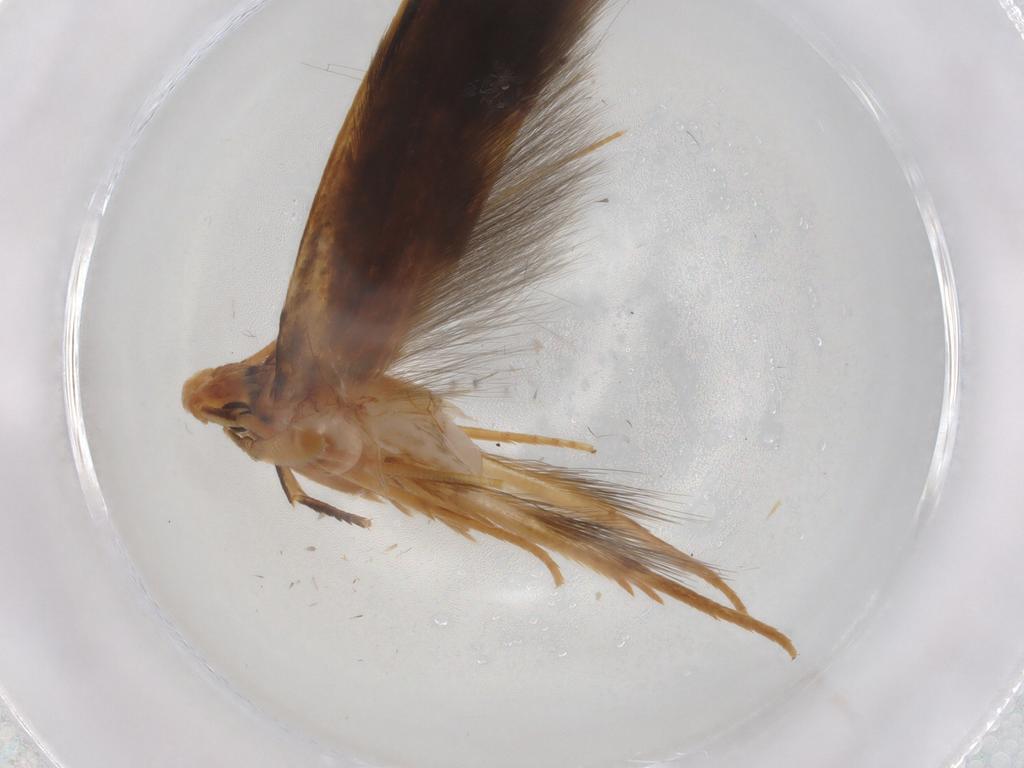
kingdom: Animalia
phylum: Arthropoda
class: Insecta
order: Lepidoptera
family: Tineidae
